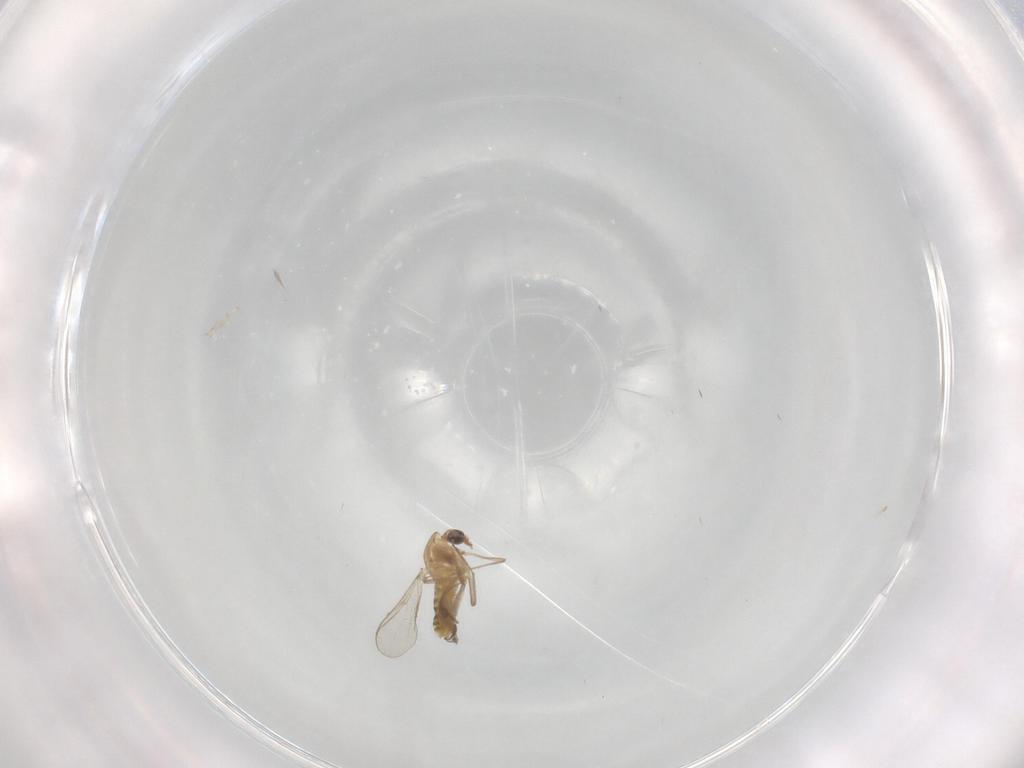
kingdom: Animalia
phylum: Arthropoda
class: Insecta
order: Diptera
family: Chironomidae
